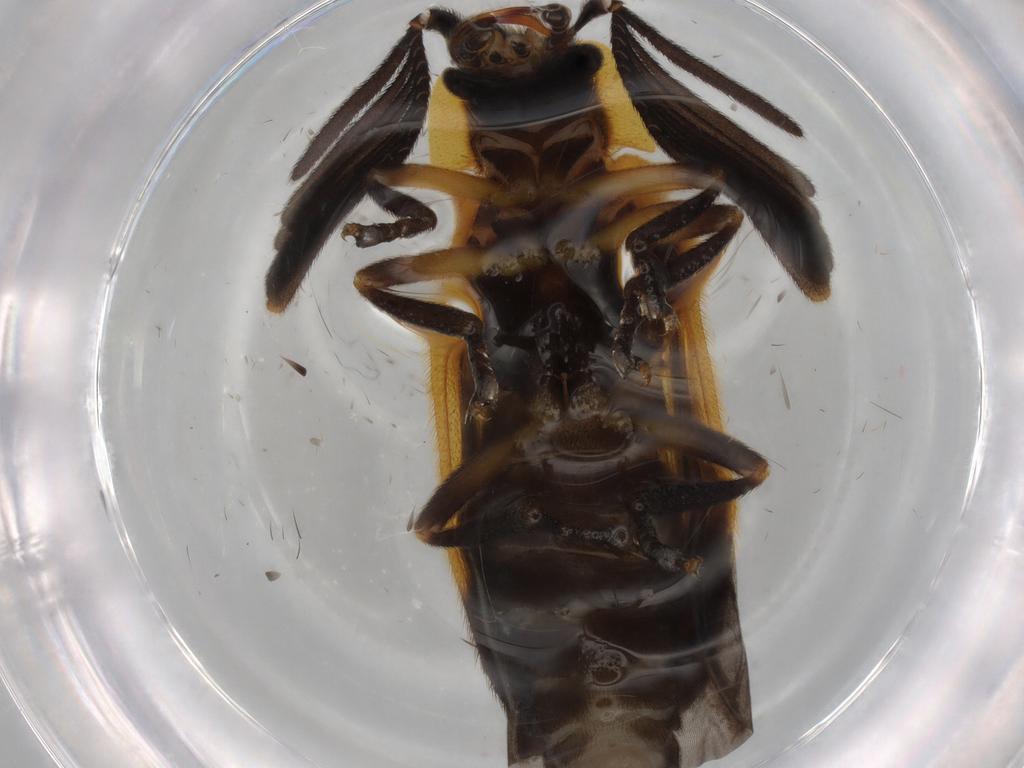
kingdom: Animalia
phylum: Arthropoda
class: Insecta
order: Coleoptera
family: Lampyridae
